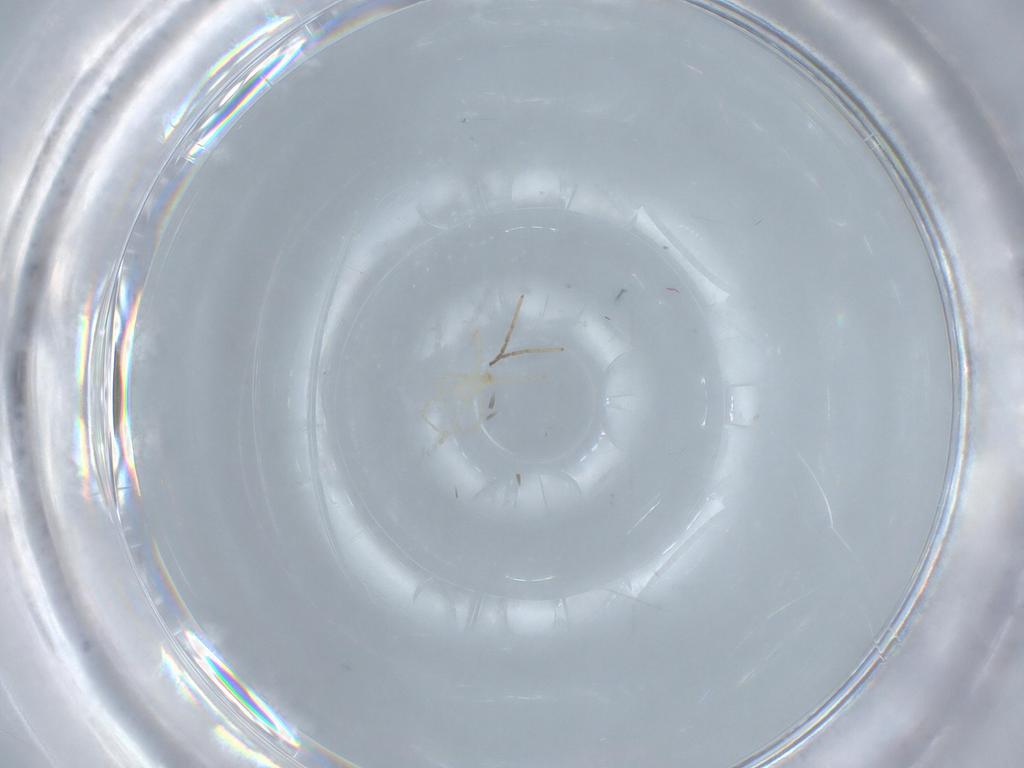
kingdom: Animalia
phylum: Arthropoda
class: Arachnida
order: Trombidiformes
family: Erythraeidae
